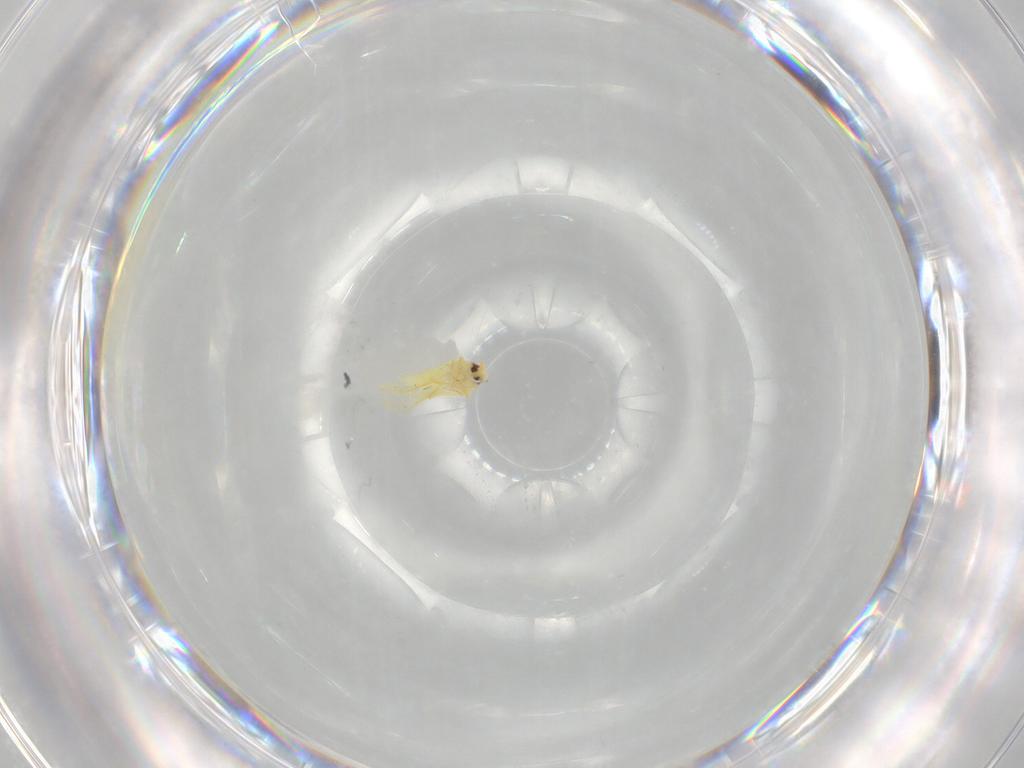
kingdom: Animalia
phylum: Arthropoda
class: Insecta
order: Hemiptera
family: Aleyrodidae
